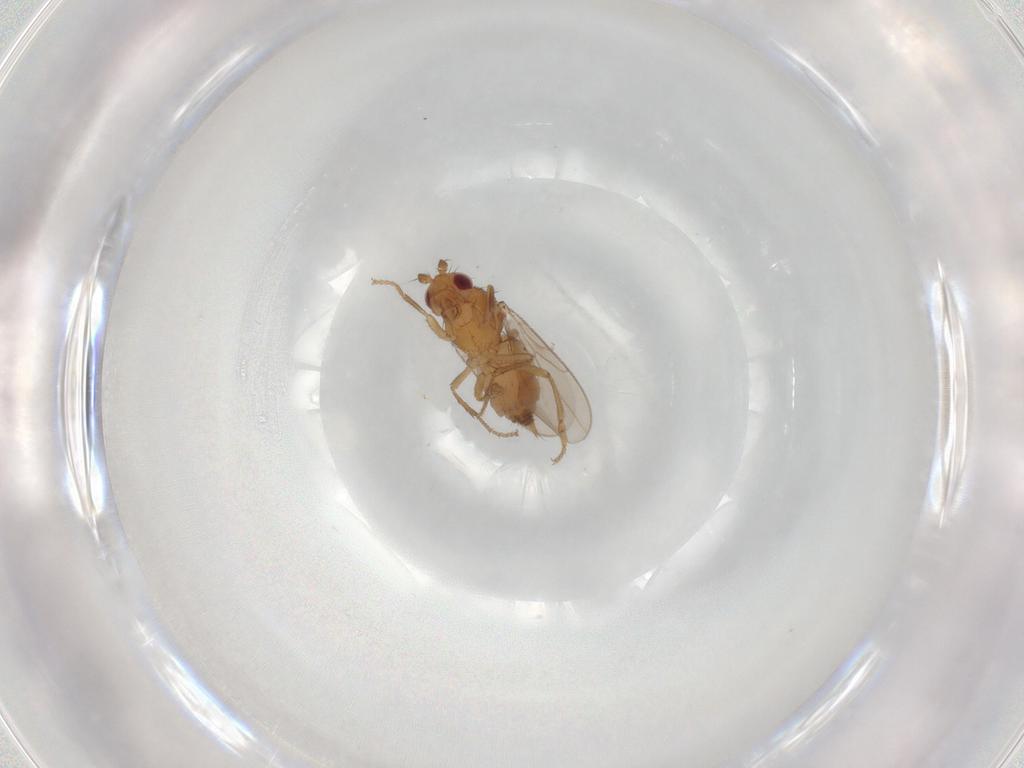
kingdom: Animalia
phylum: Arthropoda
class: Insecta
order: Diptera
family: Sphaeroceridae
